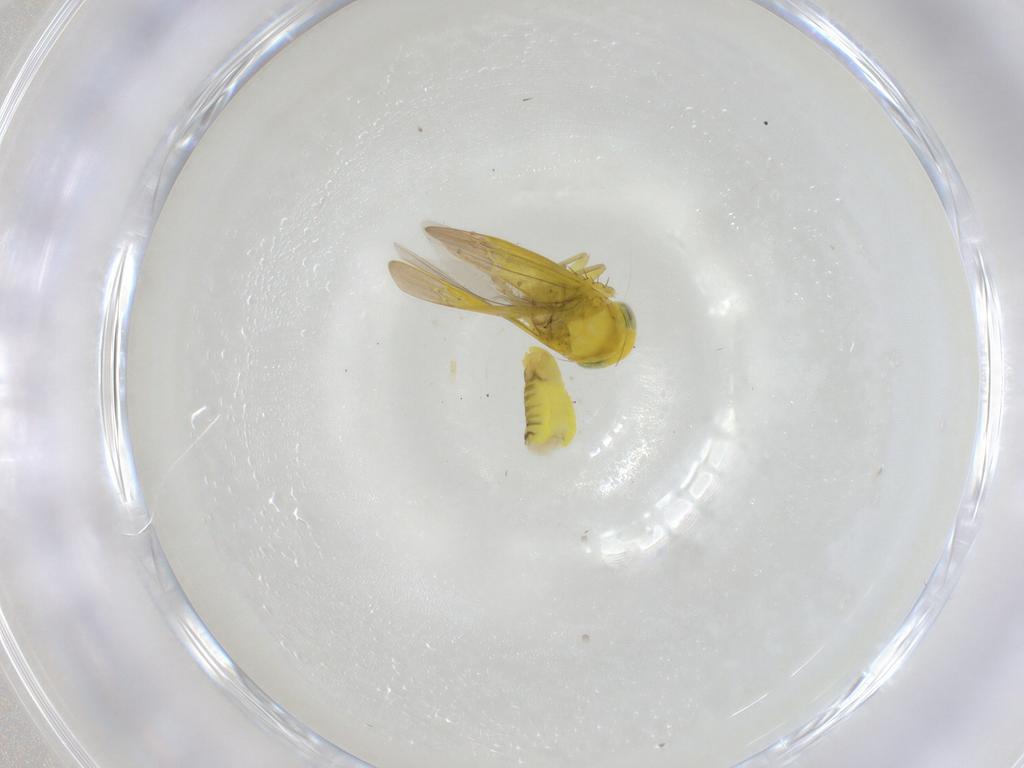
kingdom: Animalia
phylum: Arthropoda
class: Insecta
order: Hemiptera
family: Cicadellidae
